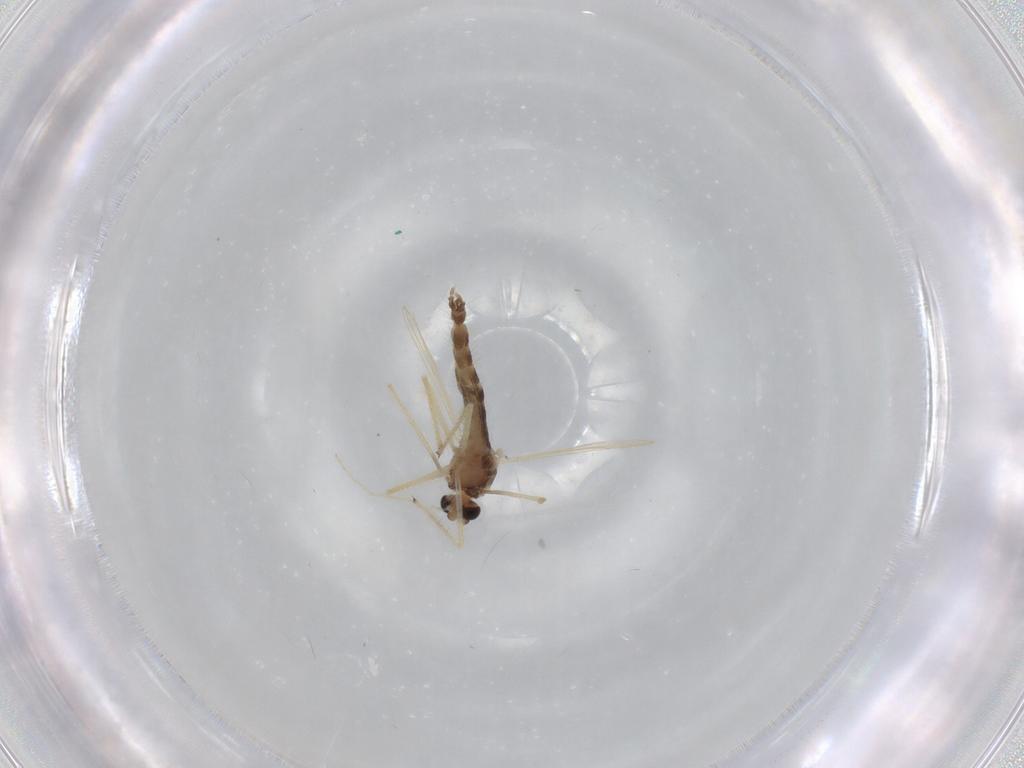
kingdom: Animalia
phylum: Arthropoda
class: Insecta
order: Diptera
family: Chironomidae
